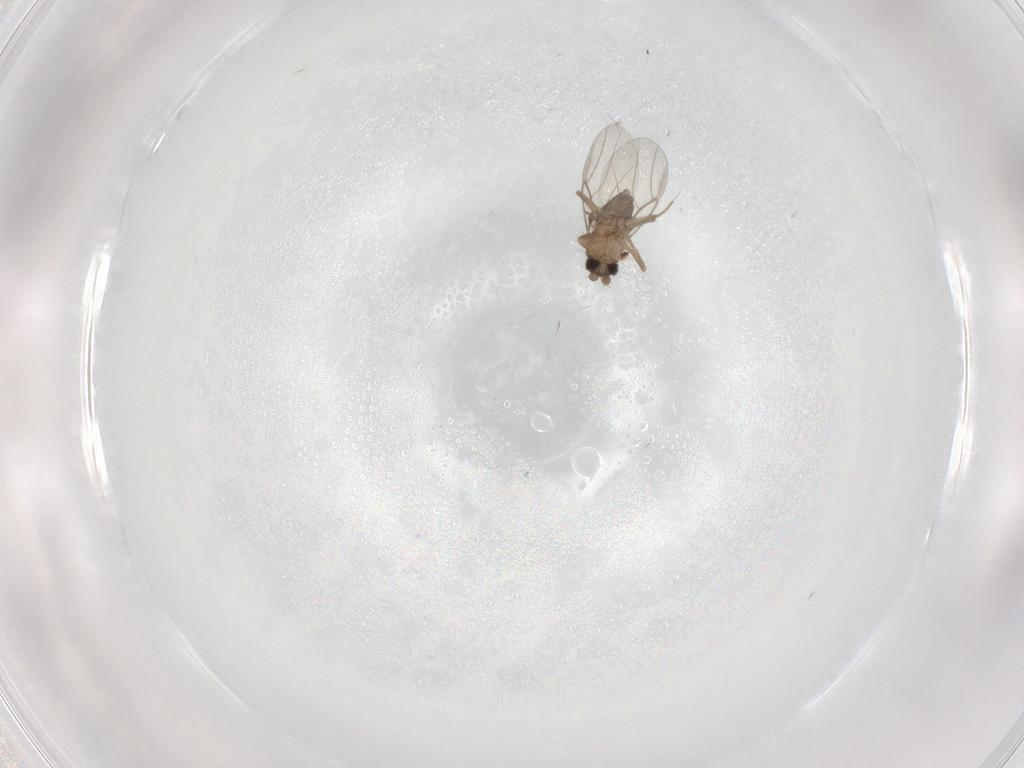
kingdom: Animalia
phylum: Arthropoda
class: Insecta
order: Diptera
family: Phoridae
